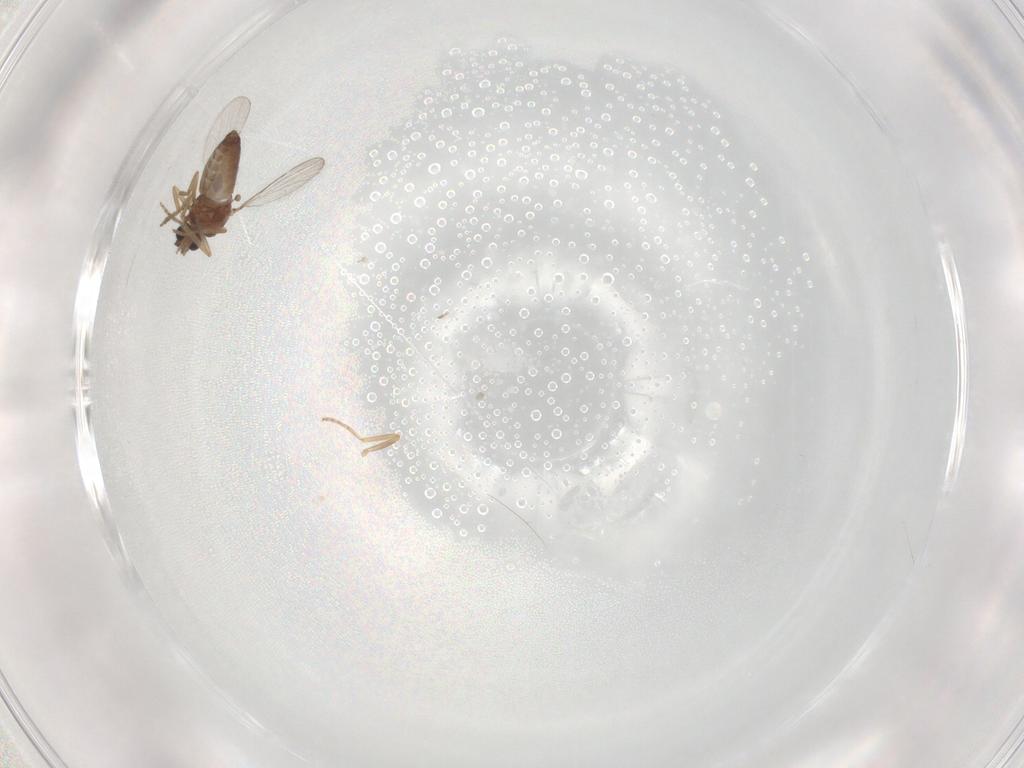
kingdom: Animalia
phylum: Arthropoda
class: Insecta
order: Diptera
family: Ceratopogonidae
